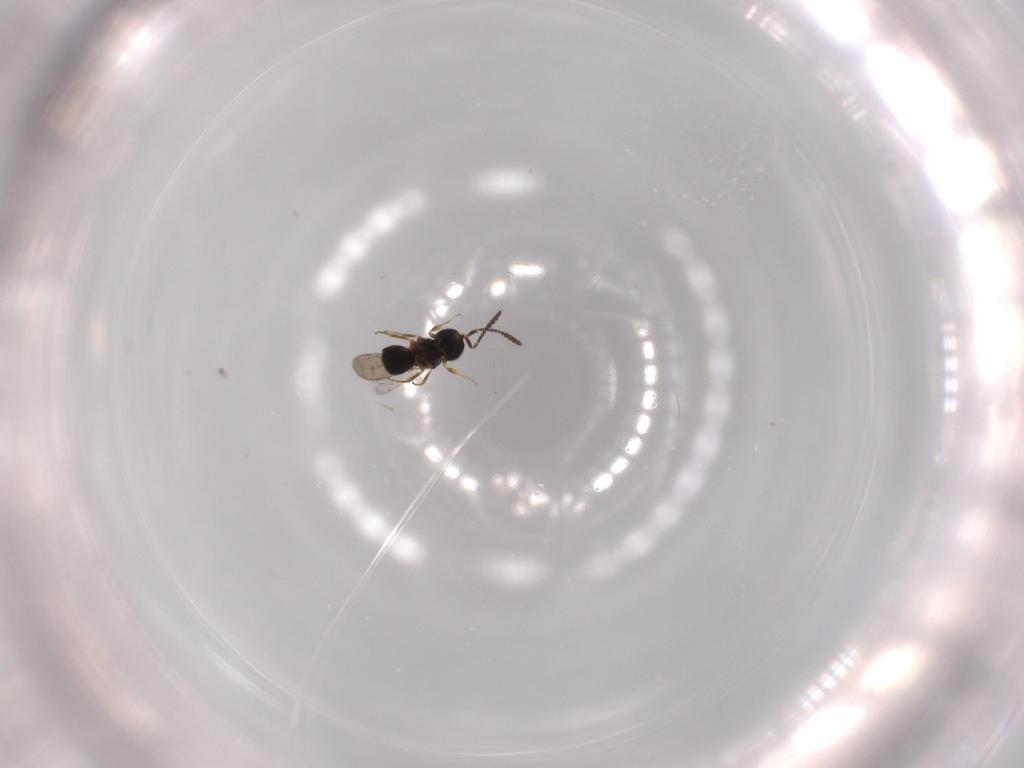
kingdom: Animalia
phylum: Arthropoda
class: Insecta
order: Hymenoptera
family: Scelionidae
